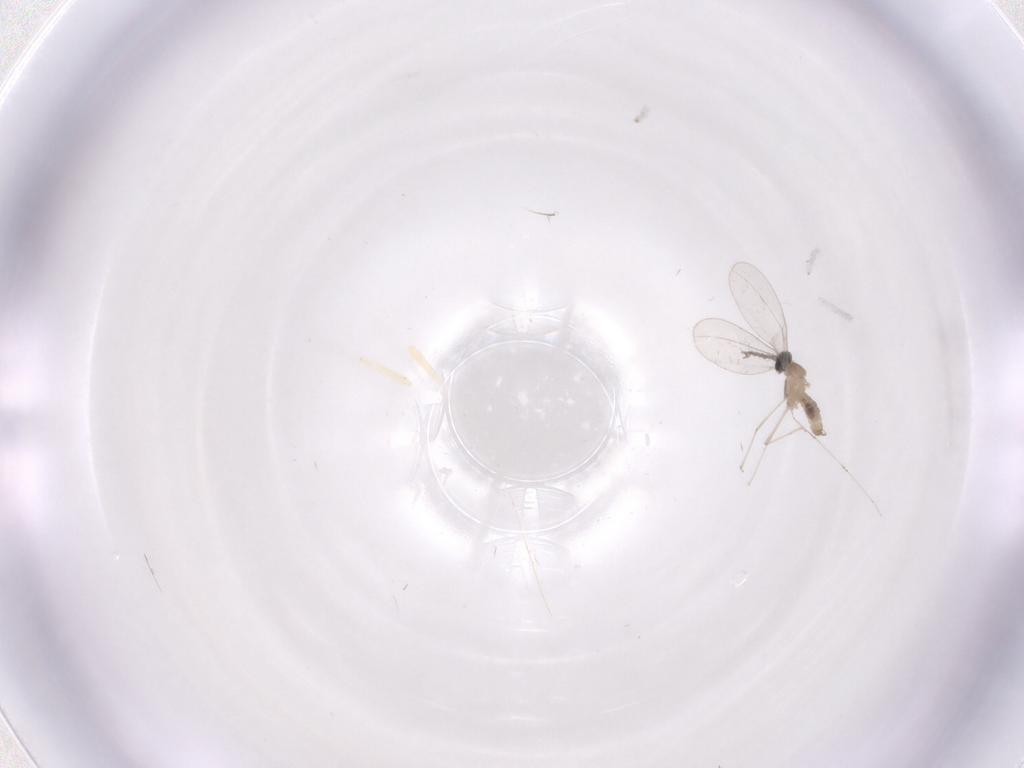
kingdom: Animalia
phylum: Arthropoda
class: Insecta
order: Diptera
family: Cecidomyiidae
